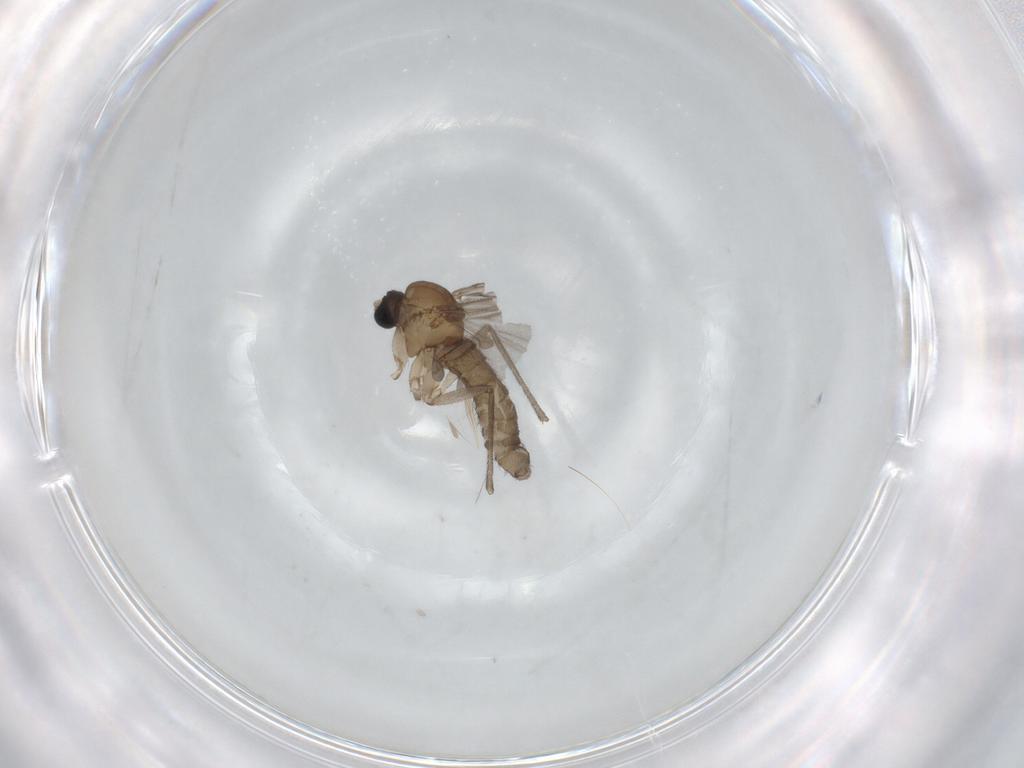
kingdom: Animalia
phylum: Arthropoda
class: Insecta
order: Diptera
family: Sciaridae
